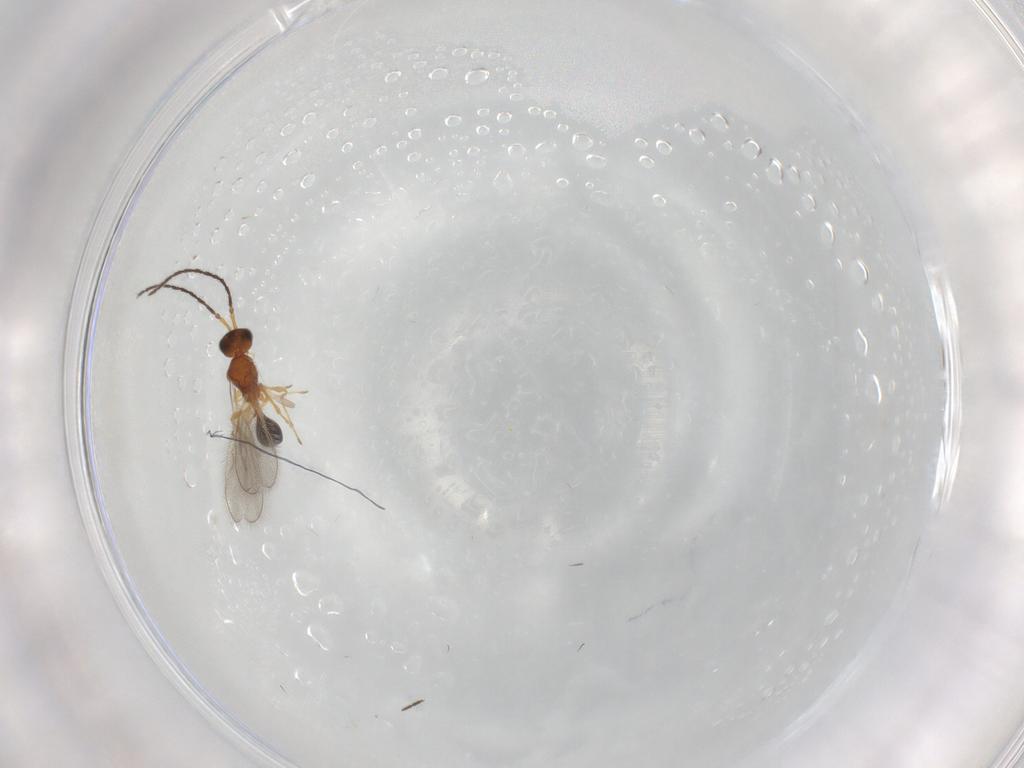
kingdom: Animalia
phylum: Arthropoda
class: Insecta
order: Hymenoptera
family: Diapriidae
